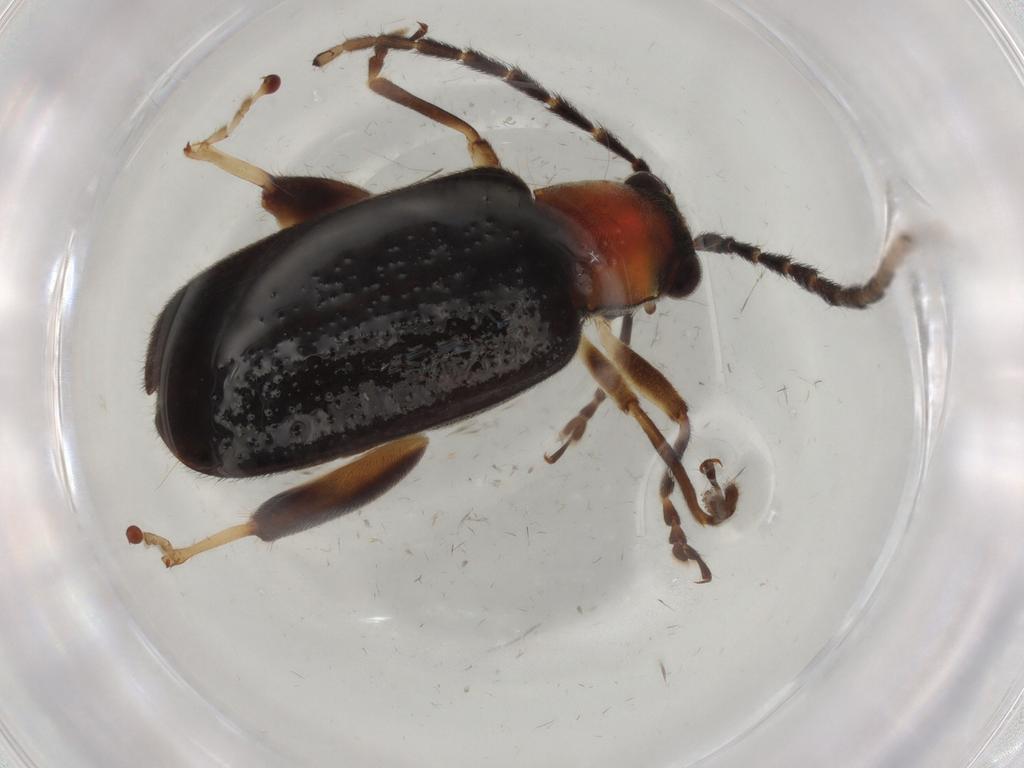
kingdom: Animalia
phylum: Arthropoda
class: Insecta
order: Coleoptera
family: Chrysomelidae
